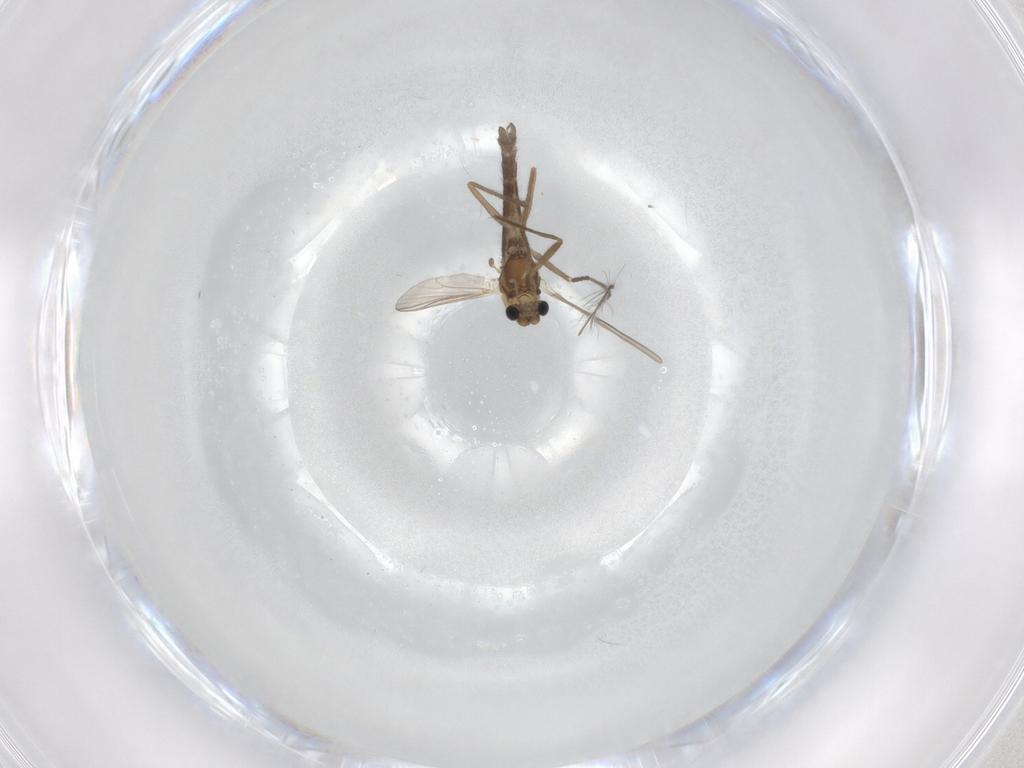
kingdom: Animalia
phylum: Arthropoda
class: Insecta
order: Diptera
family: Chironomidae
